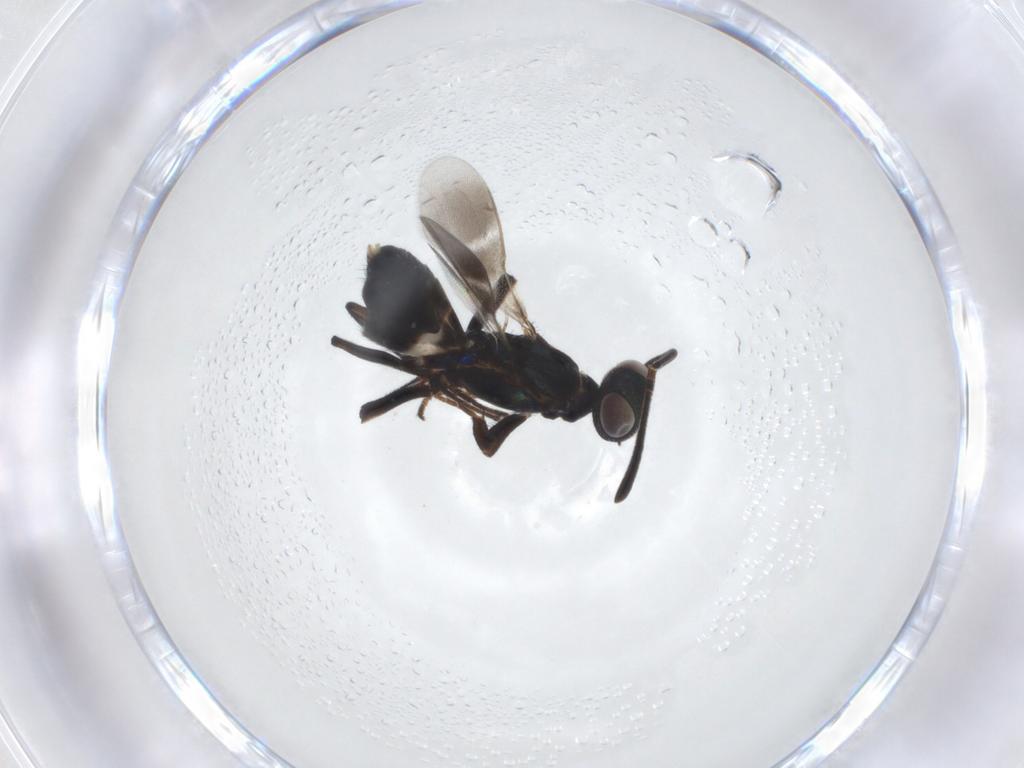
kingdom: Animalia
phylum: Arthropoda
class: Insecta
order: Hymenoptera
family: Eupelmidae
